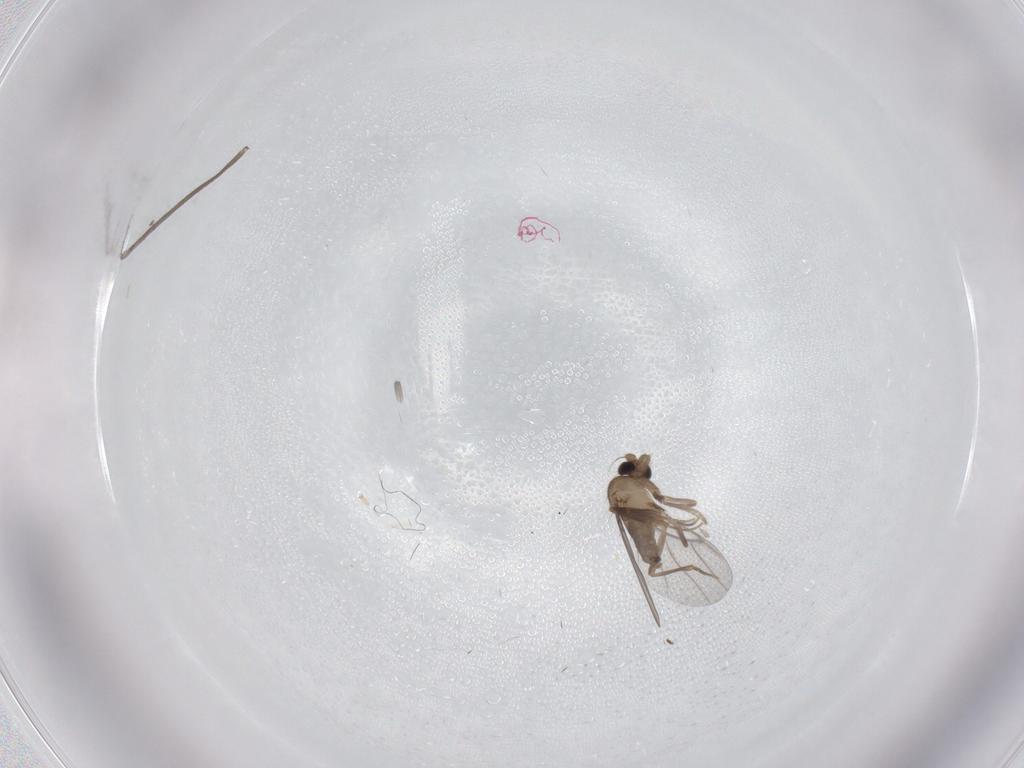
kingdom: Animalia
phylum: Arthropoda
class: Insecta
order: Diptera
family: Limoniidae
